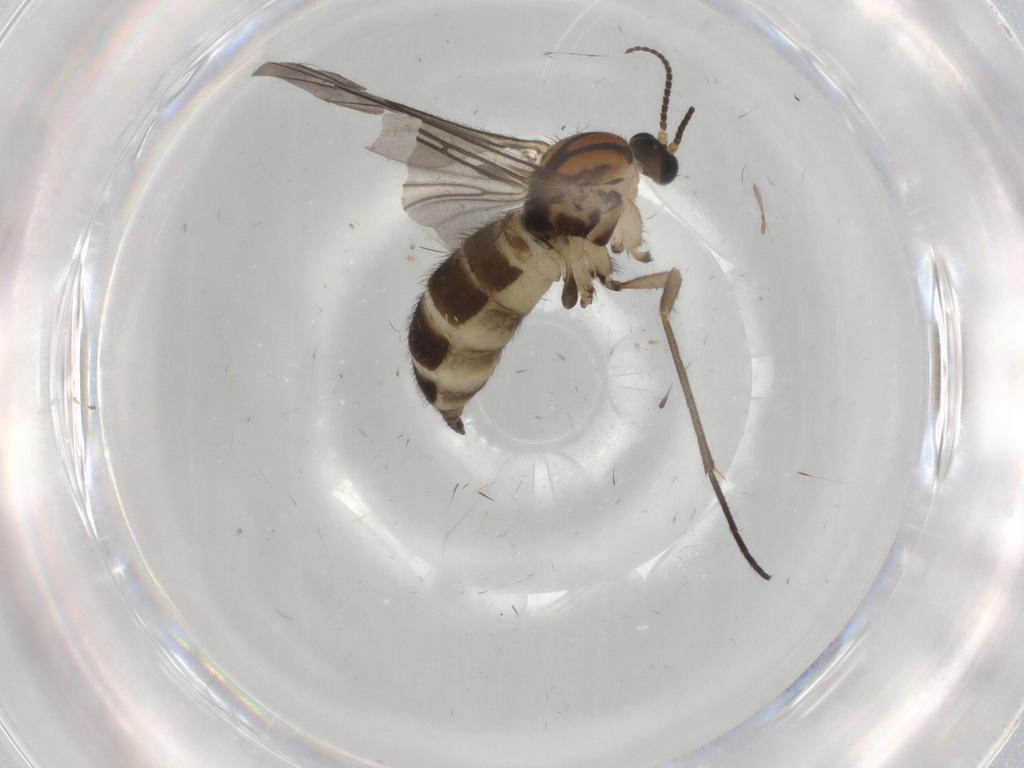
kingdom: Animalia
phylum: Arthropoda
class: Insecta
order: Diptera
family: Sciaridae
